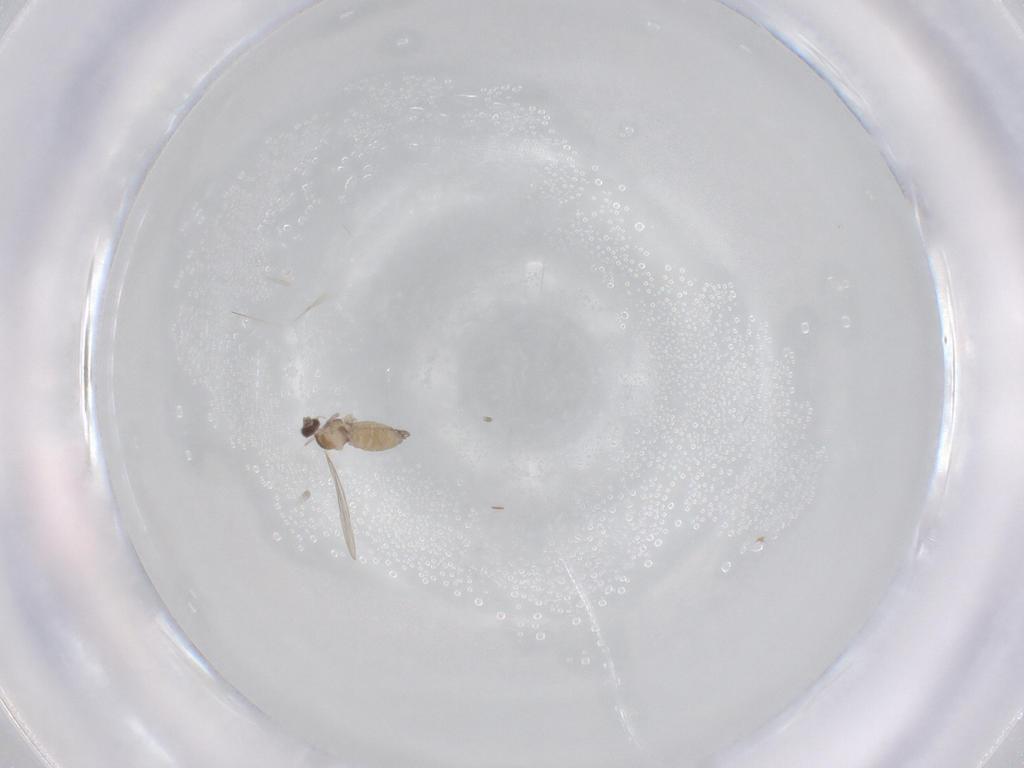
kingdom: Animalia
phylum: Arthropoda
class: Insecta
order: Diptera
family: Cecidomyiidae
